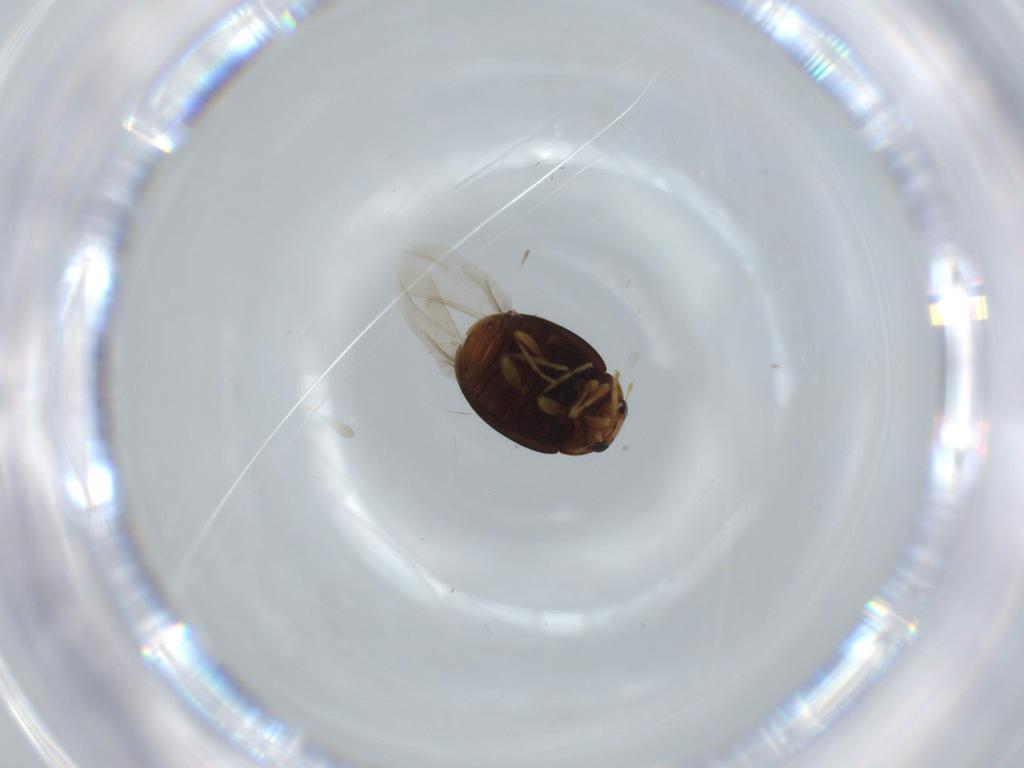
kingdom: Animalia
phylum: Arthropoda
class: Insecta
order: Coleoptera
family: Coccinellidae
